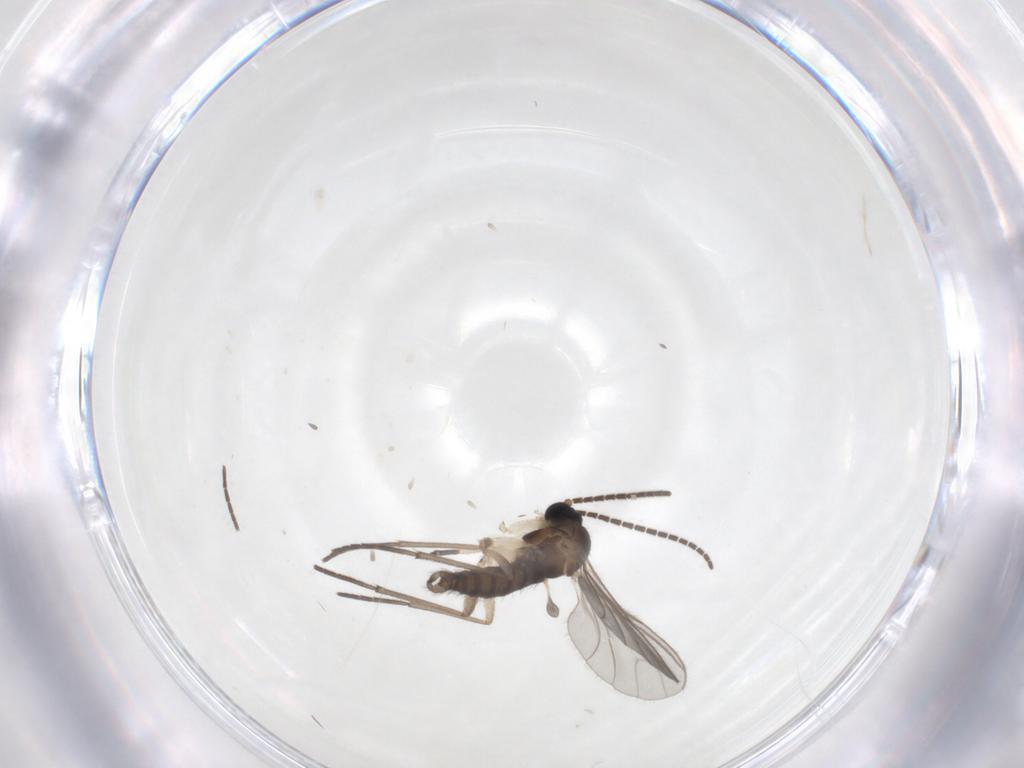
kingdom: Animalia
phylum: Arthropoda
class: Insecta
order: Diptera
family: Sciaridae
